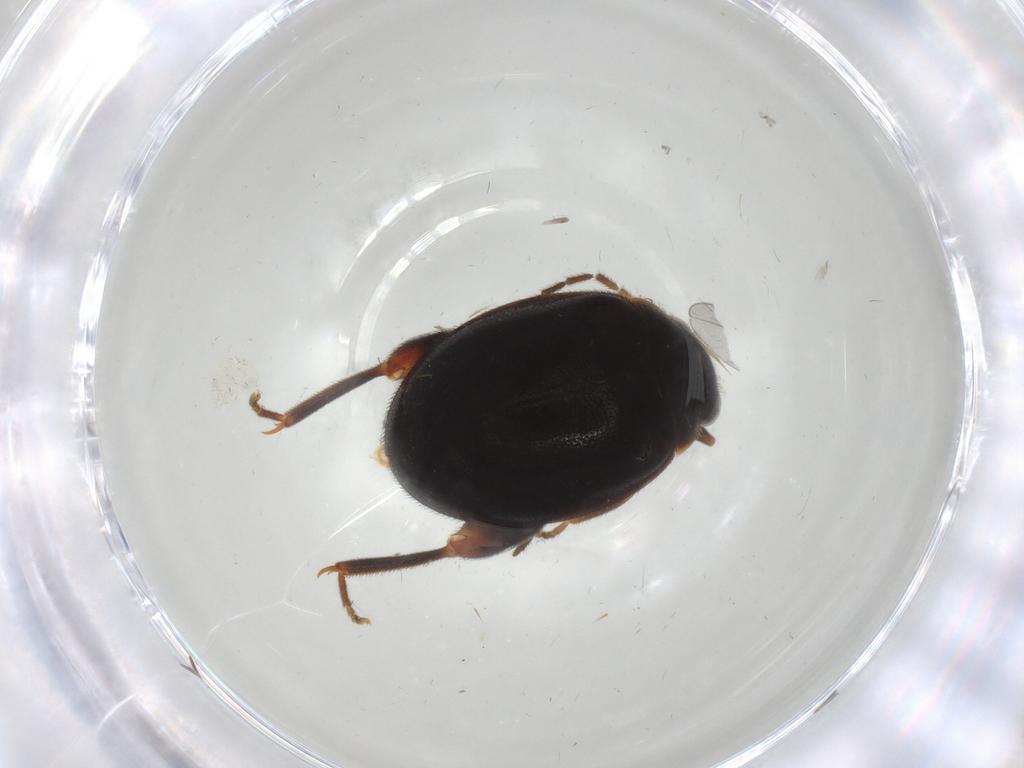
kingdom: Animalia
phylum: Arthropoda
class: Insecta
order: Coleoptera
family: Scirtidae
